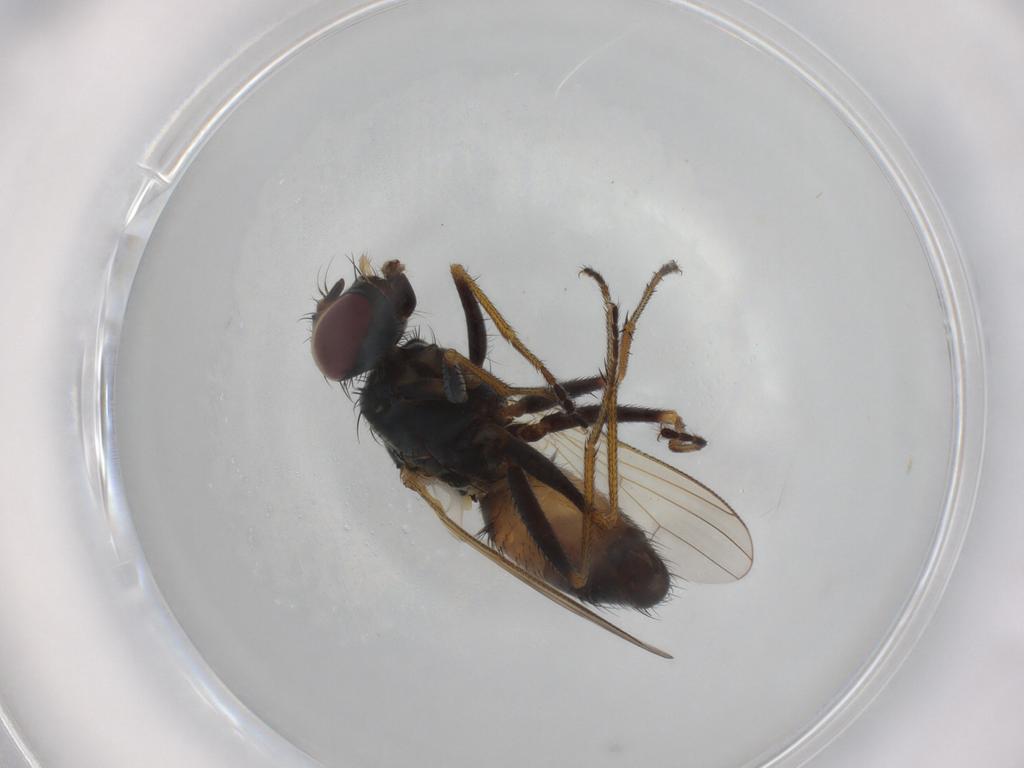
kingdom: Animalia
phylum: Arthropoda
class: Insecta
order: Diptera
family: Muscidae
